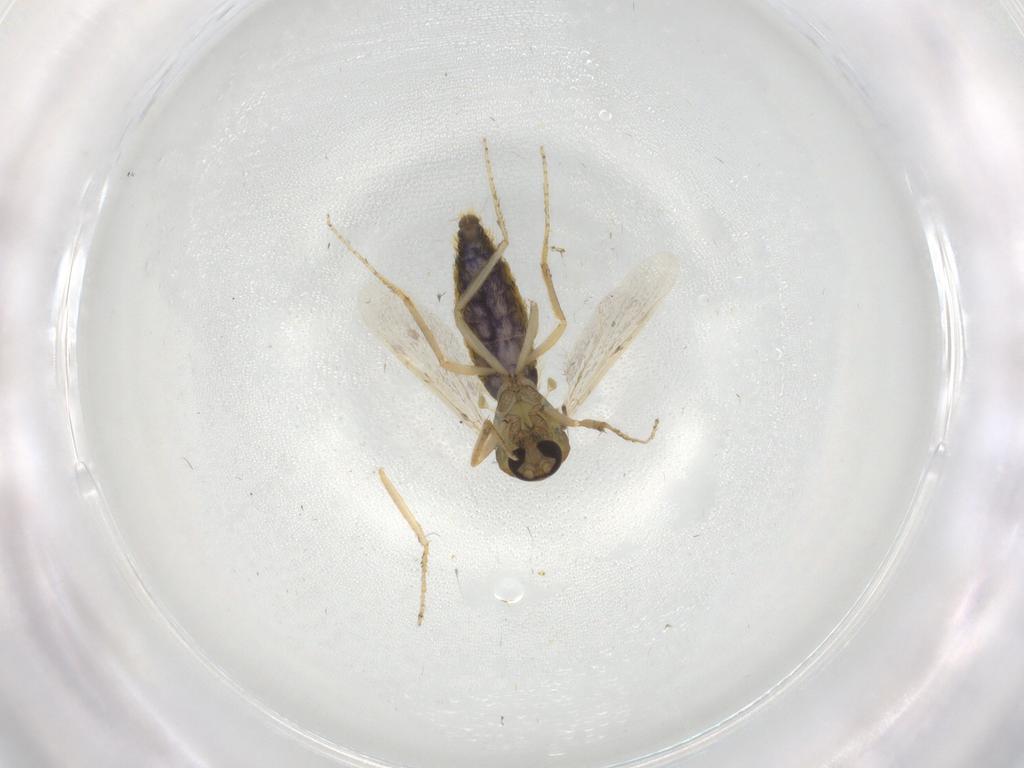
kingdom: Animalia
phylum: Arthropoda
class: Insecta
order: Diptera
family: Ceratopogonidae
